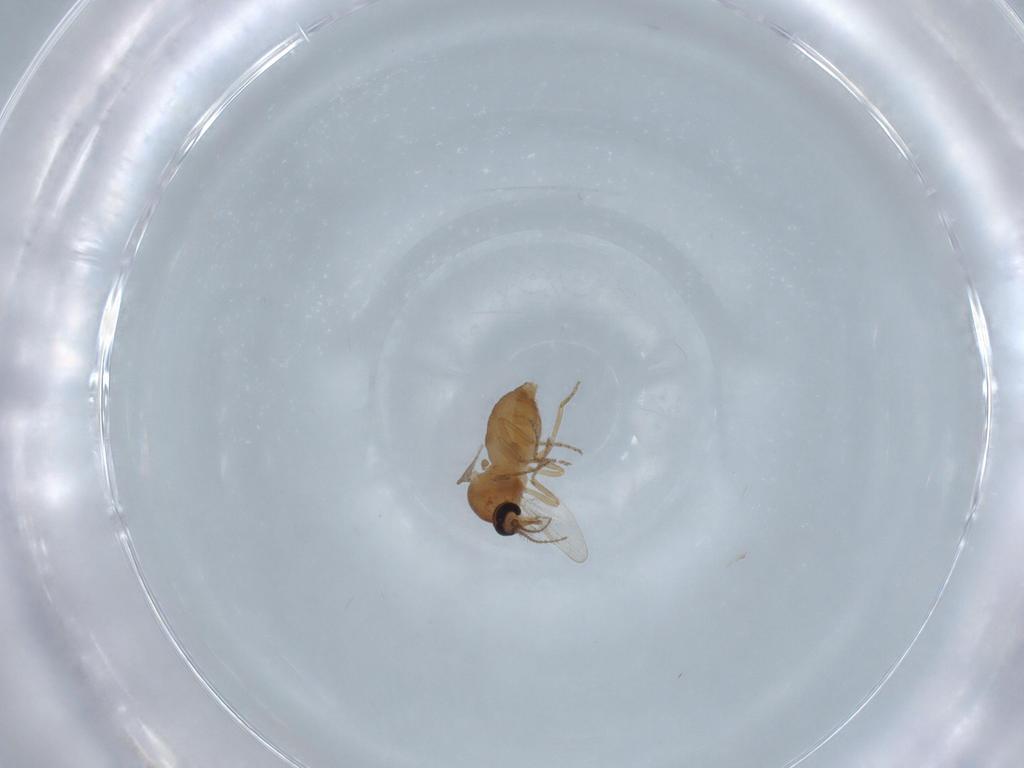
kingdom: Animalia
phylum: Arthropoda
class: Insecta
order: Diptera
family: Ceratopogonidae
